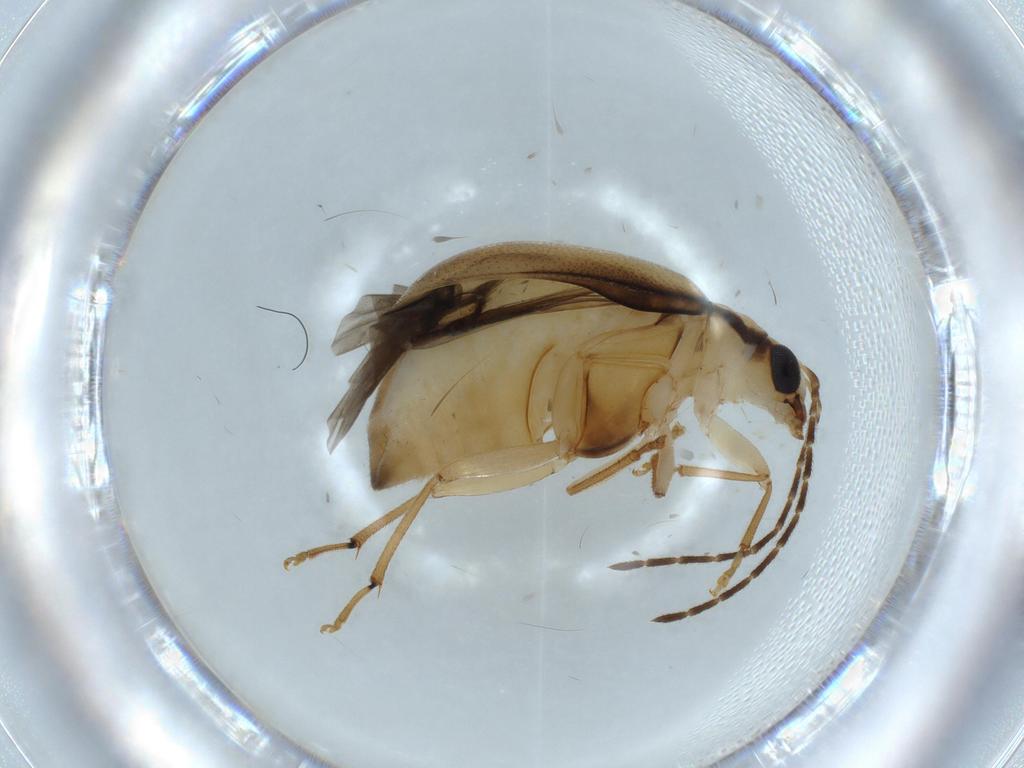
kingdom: Animalia
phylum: Arthropoda
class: Insecta
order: Coleoptera
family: Chrysomelidae
